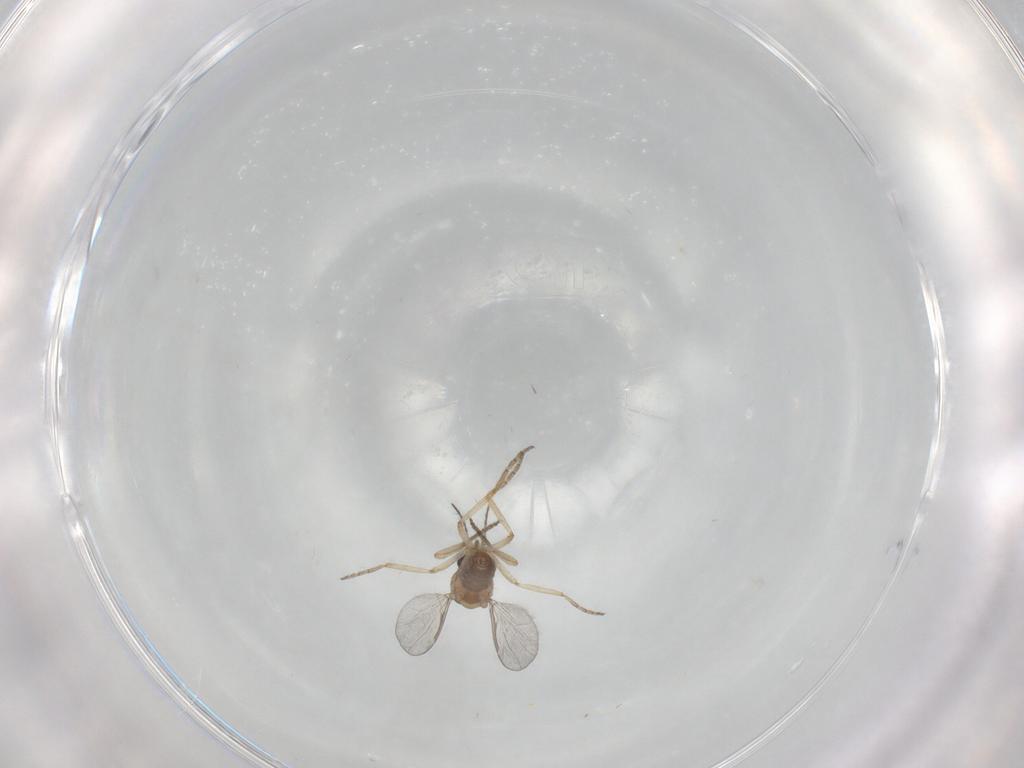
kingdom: Animalia
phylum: Arthropoda
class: Insecta
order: Diptera
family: Ceratopogonidae
